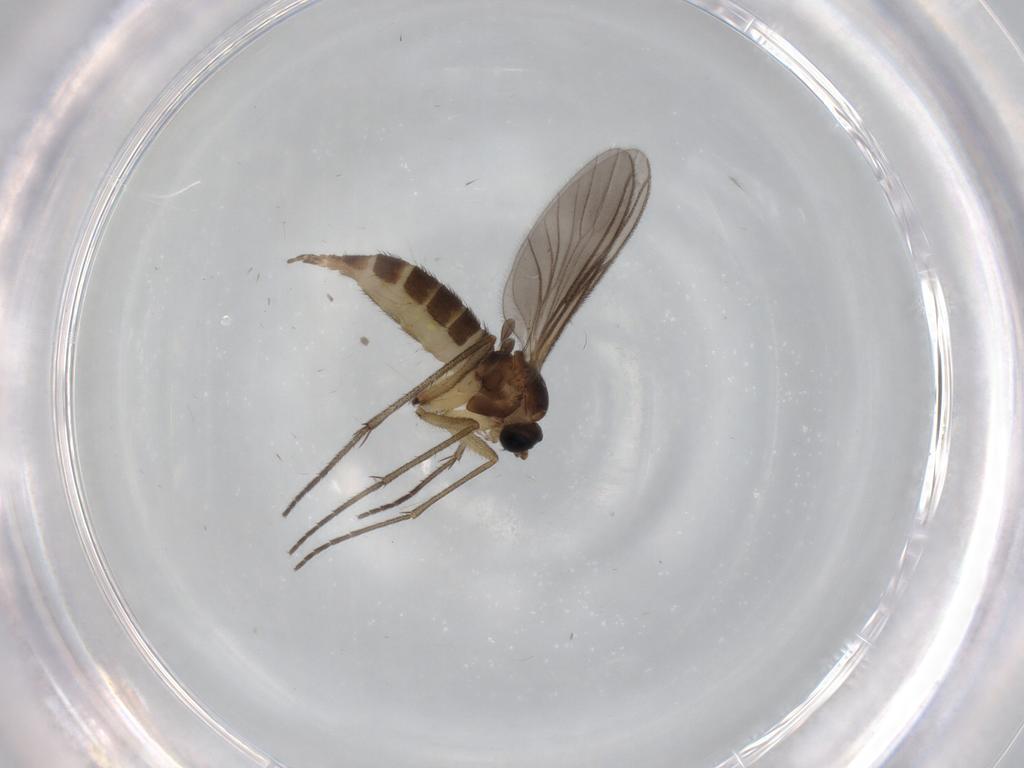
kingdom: Animalia
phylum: Arthropoda
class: Insecta
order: Diptera
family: Sciaridae
